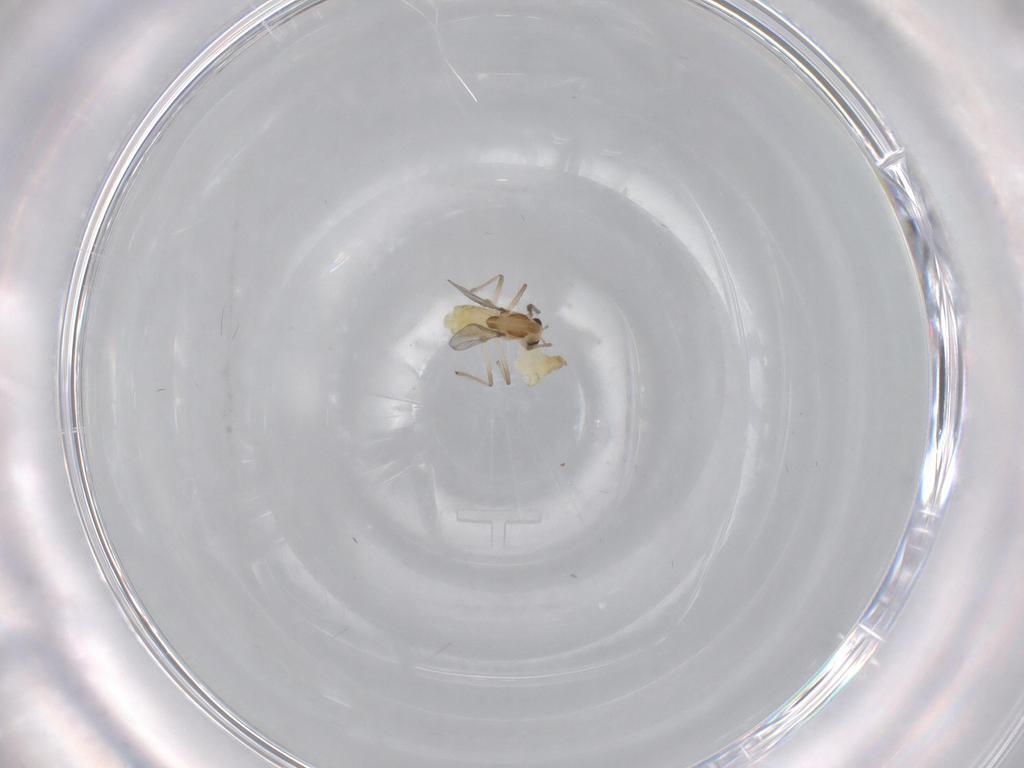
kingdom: Animalia
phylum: Arthropoda
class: Insecta
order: Diptera
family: Chironomidae
